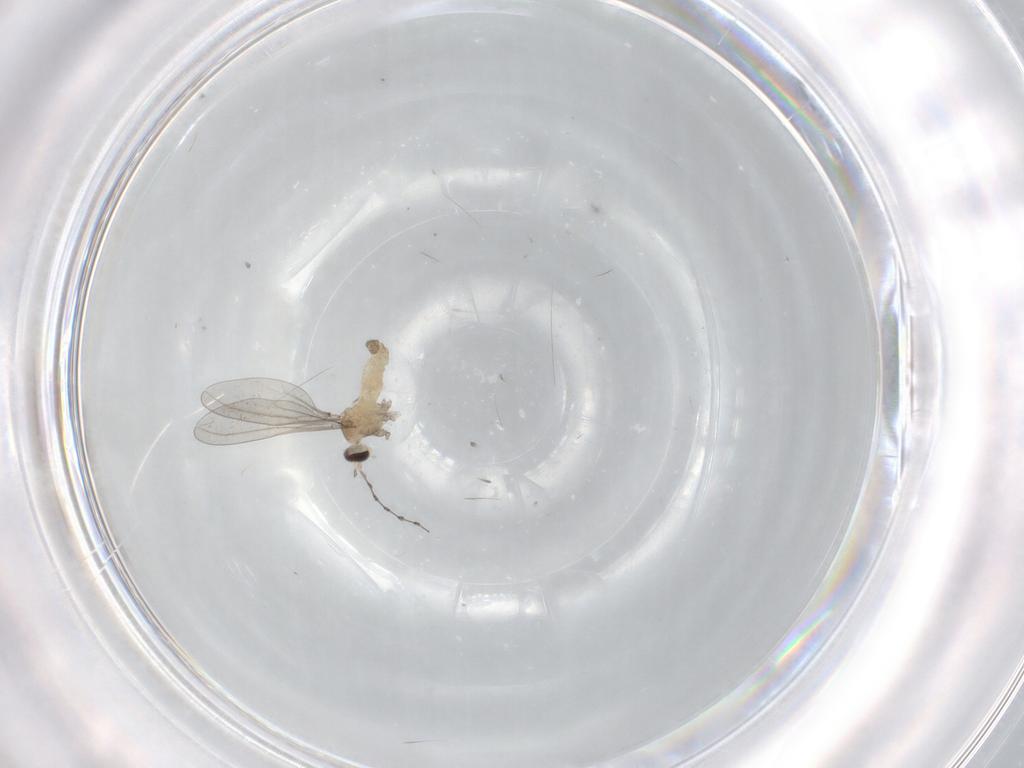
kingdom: Animalia
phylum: Arthropoda
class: Insecta
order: Diptera
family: Cecidomyiidae
